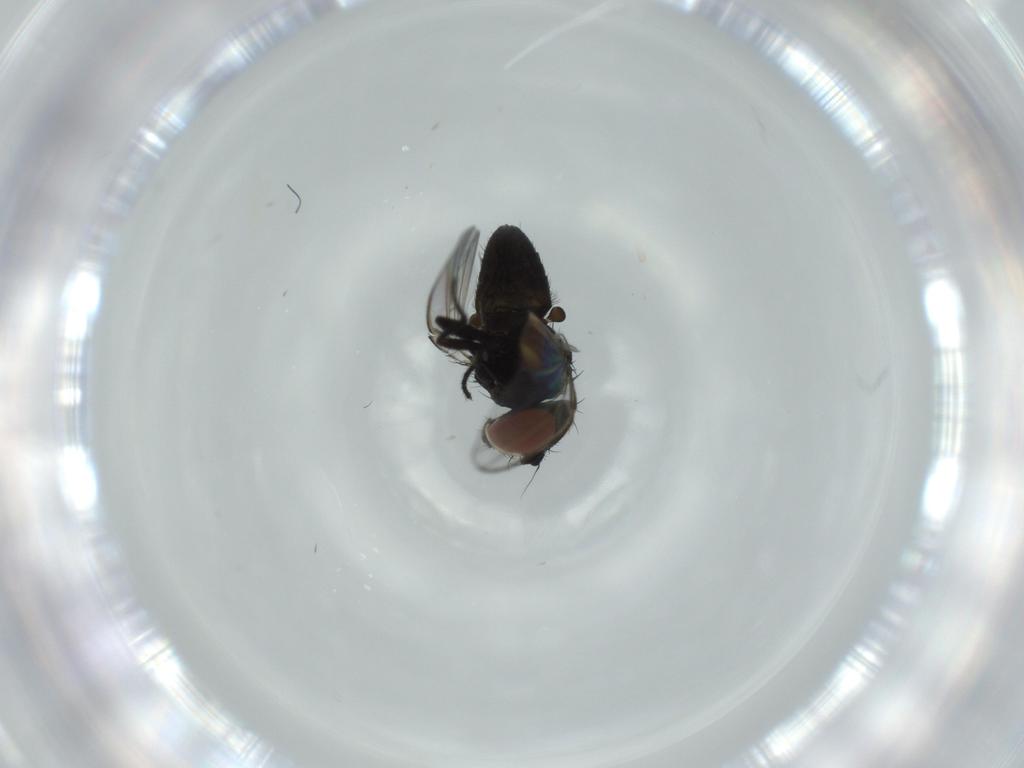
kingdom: Animalia
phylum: Arthropoda
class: Insecta
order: Diptera
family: Milichiidae
